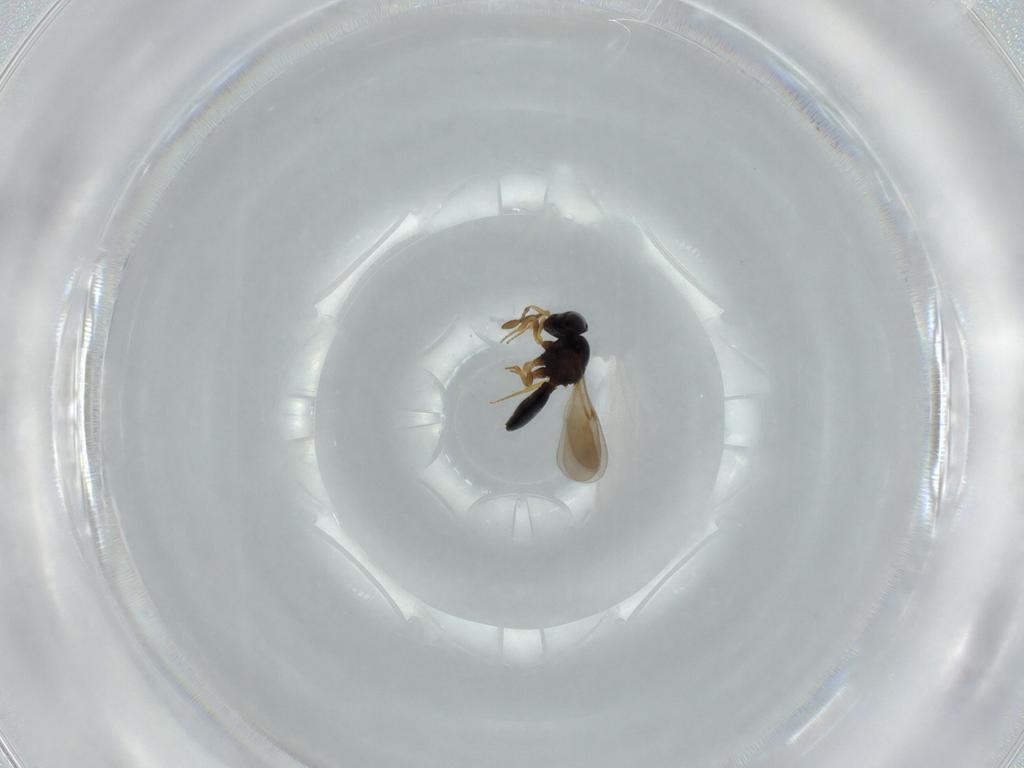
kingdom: Animalia
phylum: Arthropoda
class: Insecta
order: Hymenoptera
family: Scelionidae
